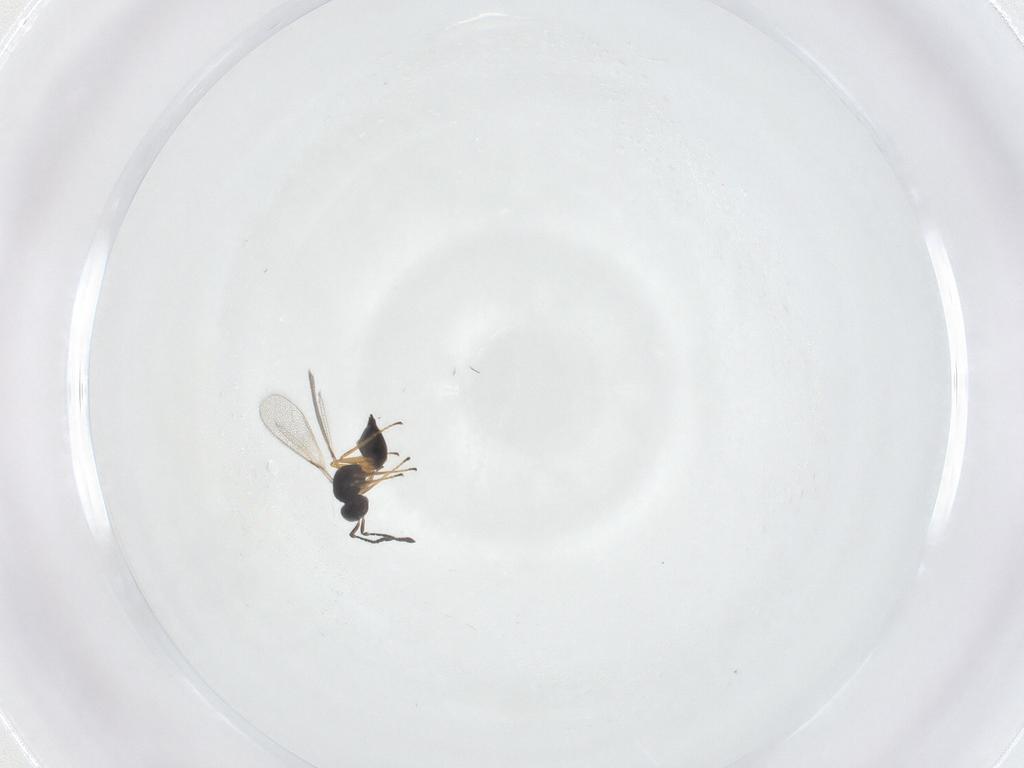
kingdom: Animalia
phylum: Arthropoda
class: Insecta
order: Hymenoptera
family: Mymaridae
